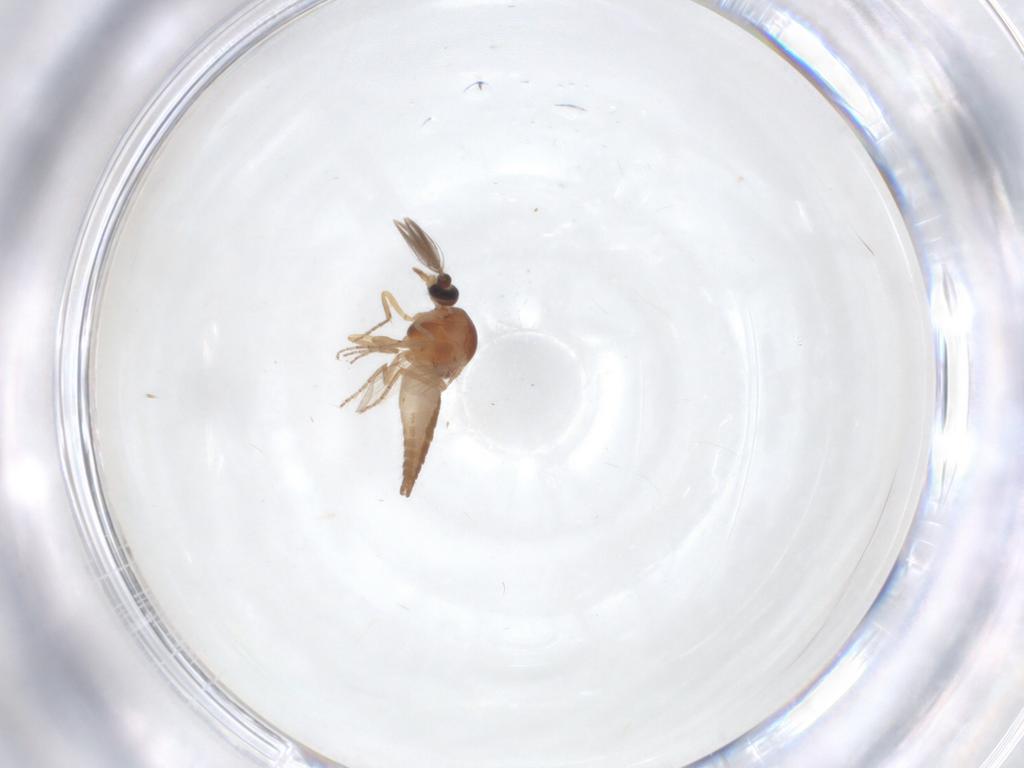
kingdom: Animalia
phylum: Arthropoda
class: Insecta
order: Diptera
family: Ceratopogonidae
